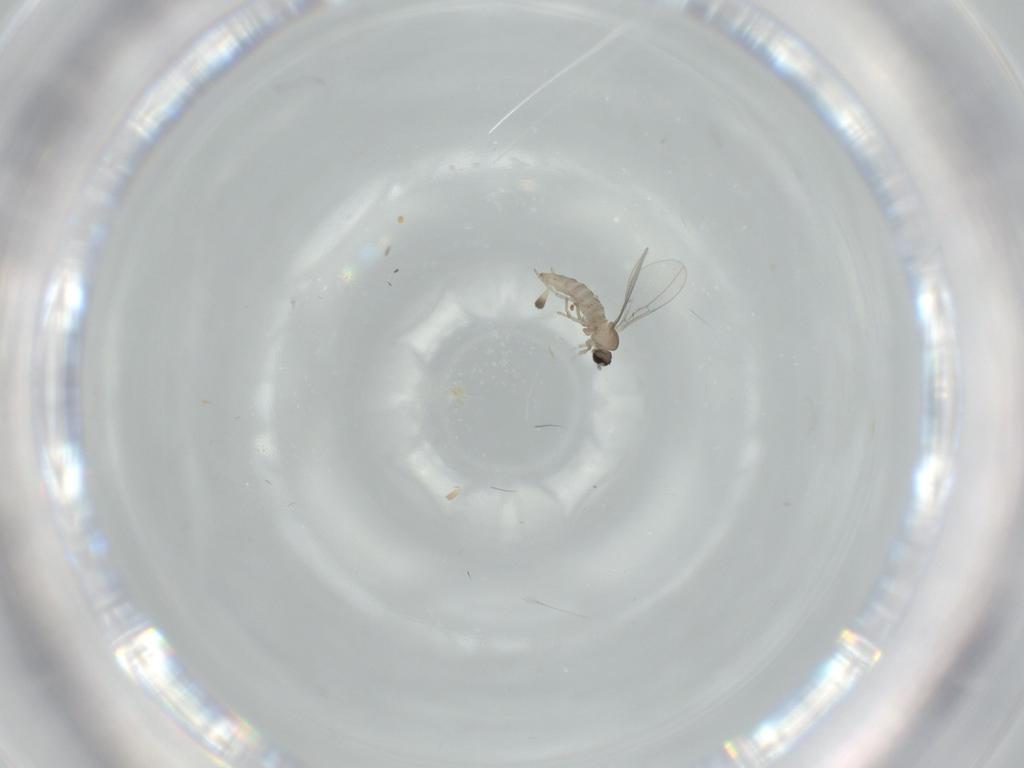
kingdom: Animalia
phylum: Arthropoda
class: Insecta
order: Diptera
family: Cecidomyiidae
